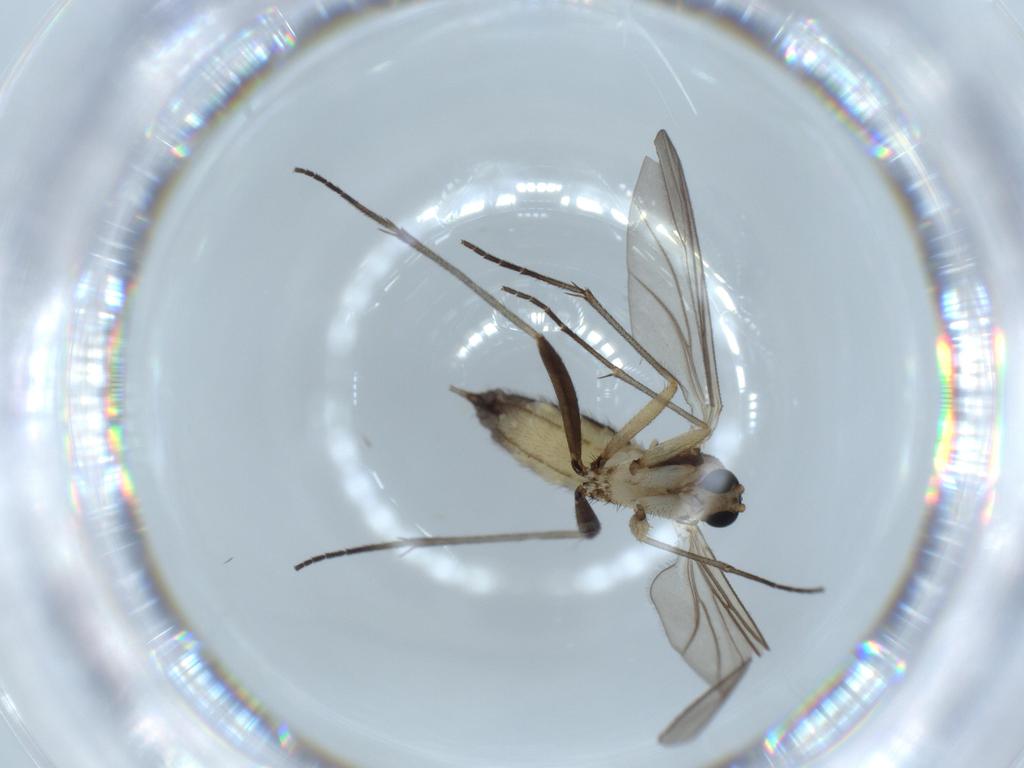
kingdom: Animalia
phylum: Arthropoda
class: Insecta
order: Diptera
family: Sciaridae
